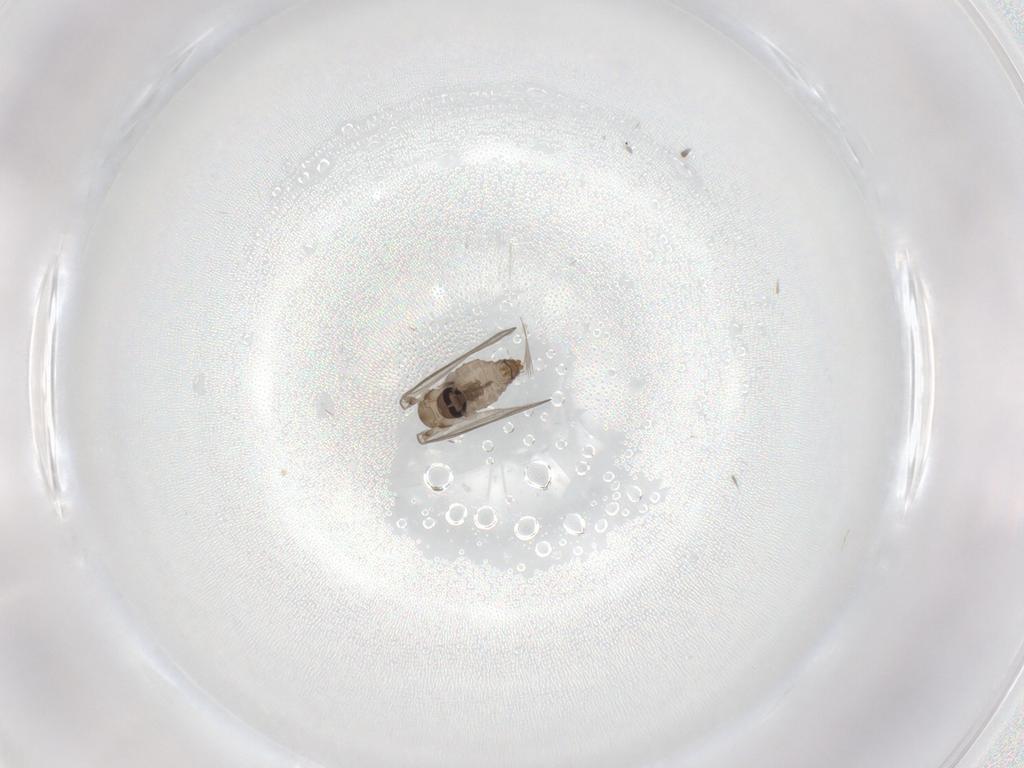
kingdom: Animalia
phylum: Arthropoda
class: Insecta
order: Diptera
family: Psychodidae
